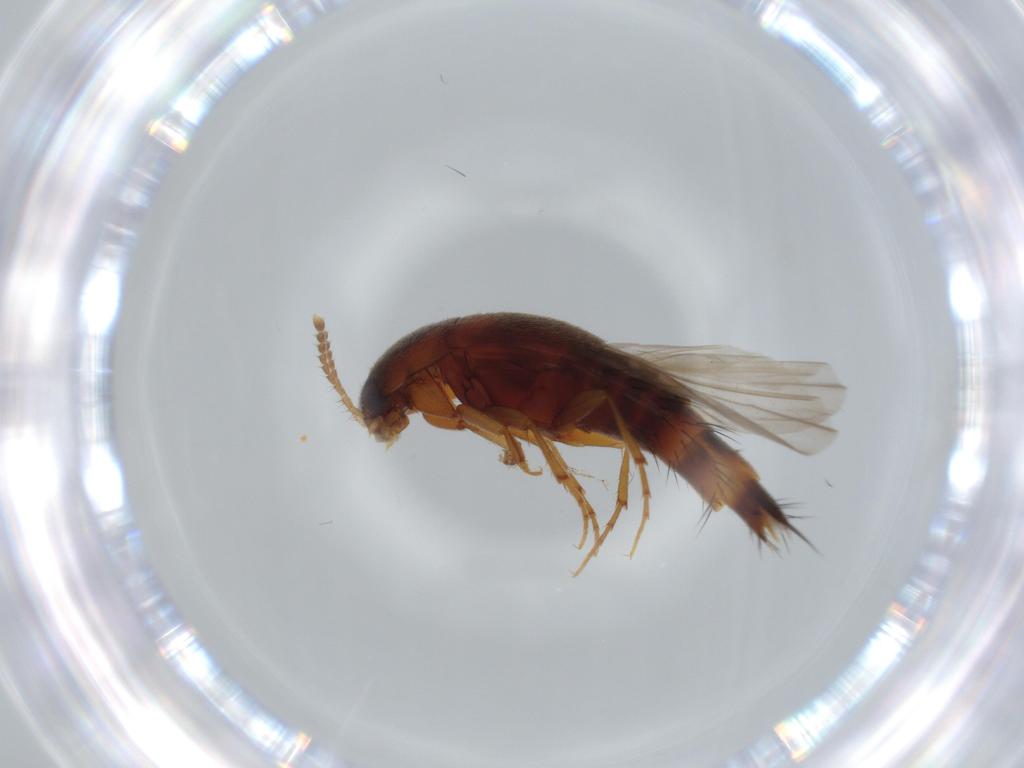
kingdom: Animalia
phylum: Arthropoda
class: Insecta
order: Coleoptera
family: Staphylinidae
